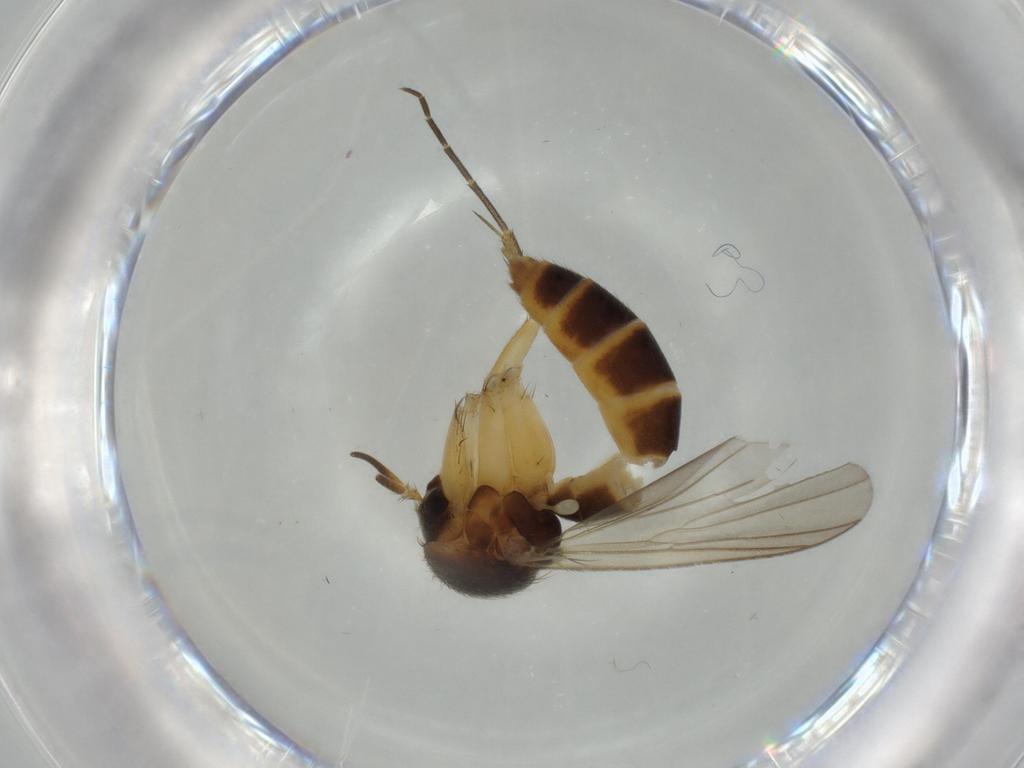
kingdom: Animalia
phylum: Arthropoda
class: Insecta
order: Diptera
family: Mycetophilidae
